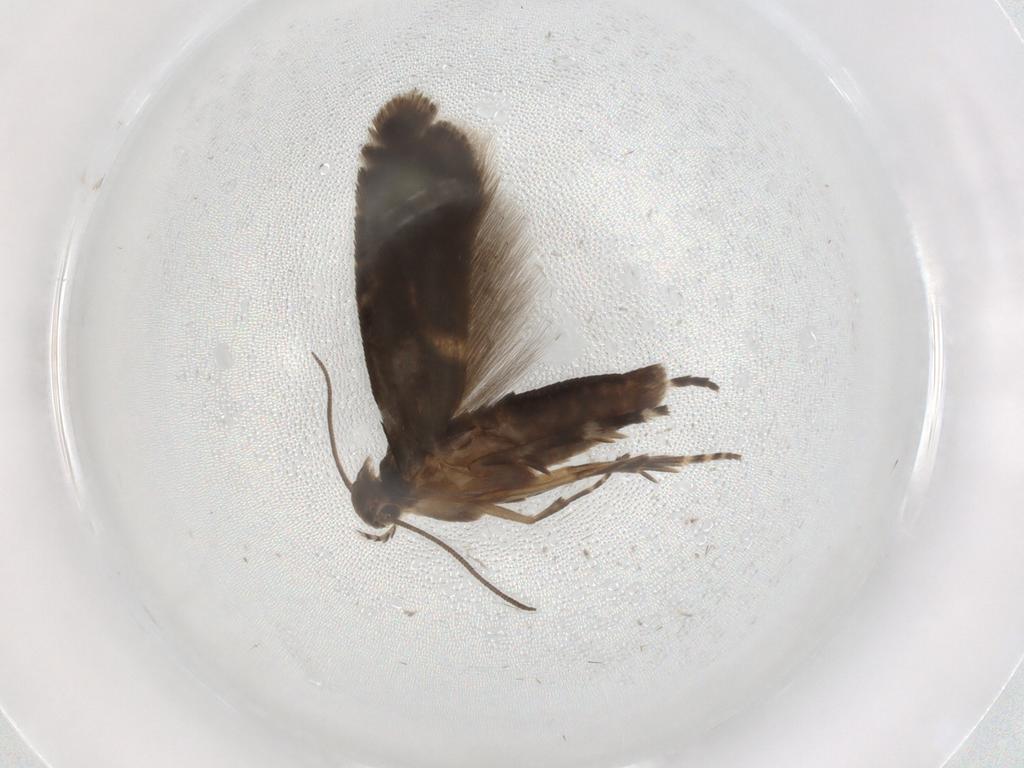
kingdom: Animalia
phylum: Arthropoda
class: Insecta
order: Lepidoptera
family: Glyphipterigidae
